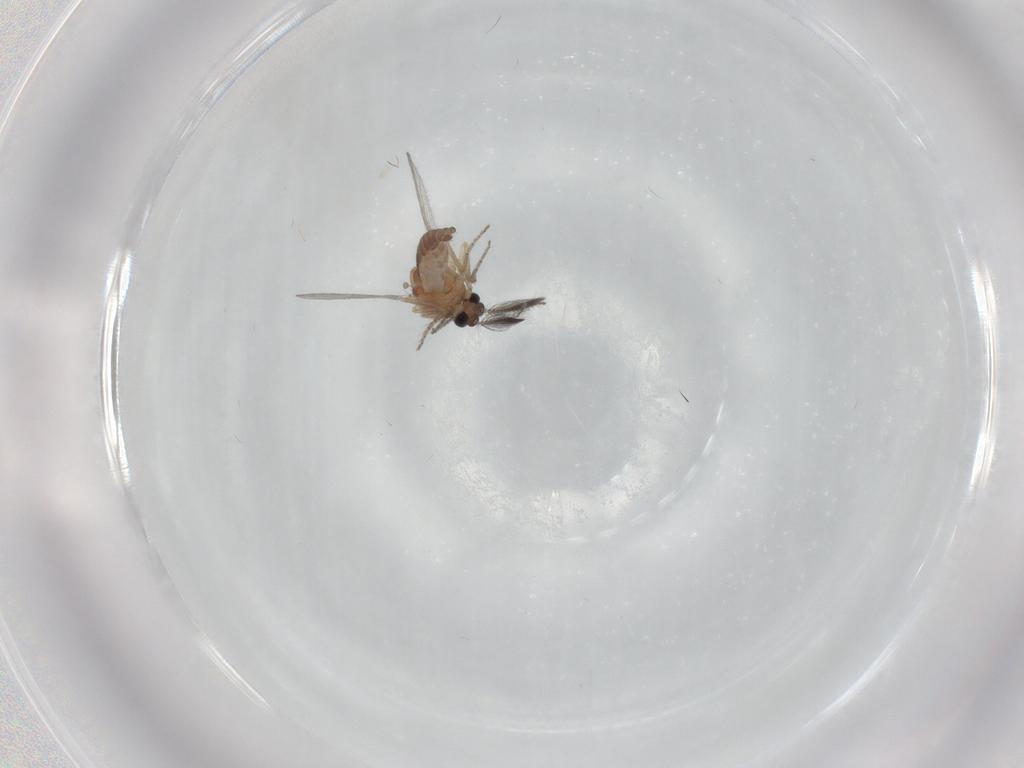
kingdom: Animalia
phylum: Arthropoda
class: Insecta
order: Diptera
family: Ceratopogonidae
